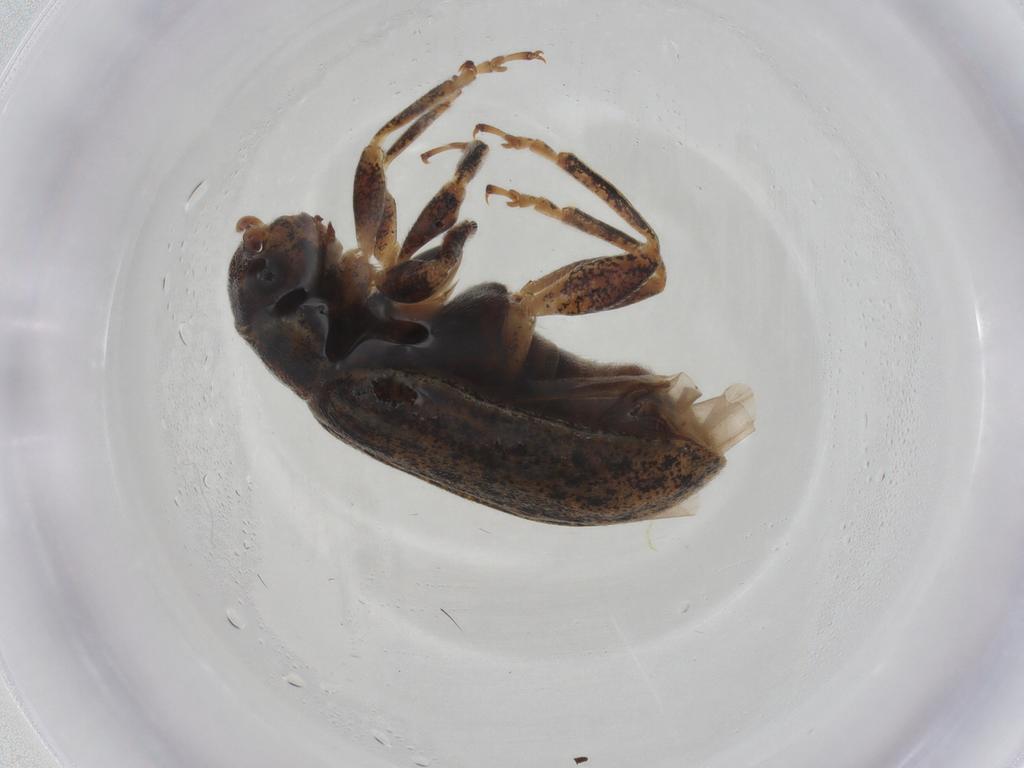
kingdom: Animalia
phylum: Arthropoda
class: Insecta
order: Coleoptera
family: Chrysomelidae
